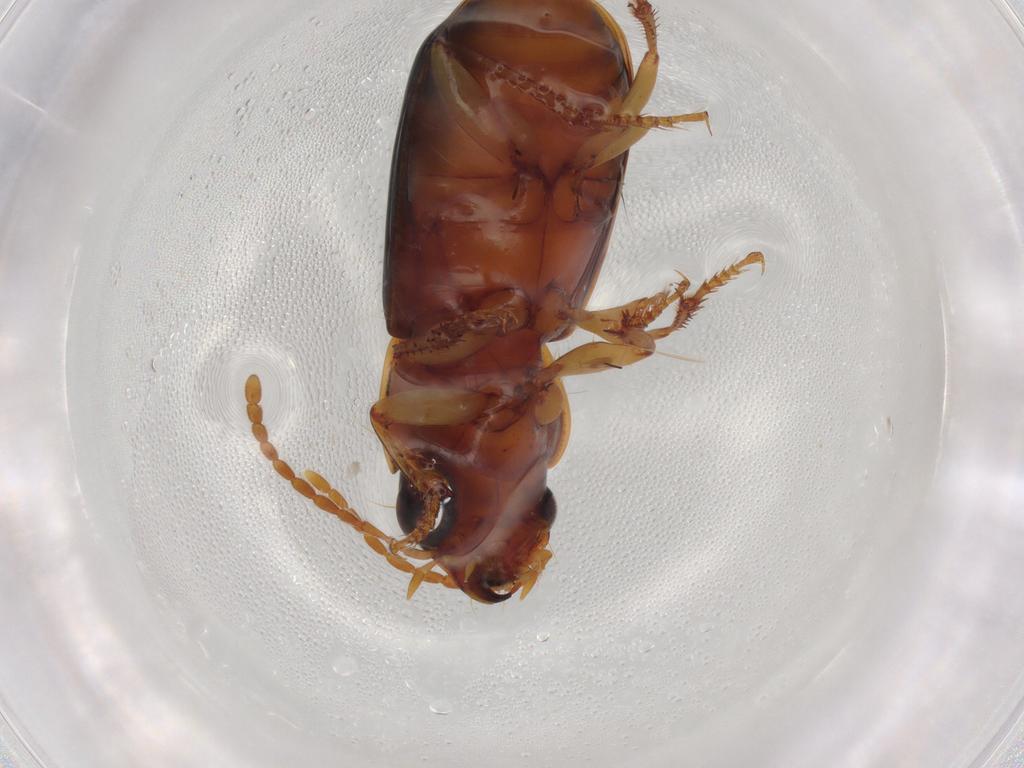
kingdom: Animalia
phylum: Arthropoda
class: Insecta
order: Coleoptera
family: Carabidae
